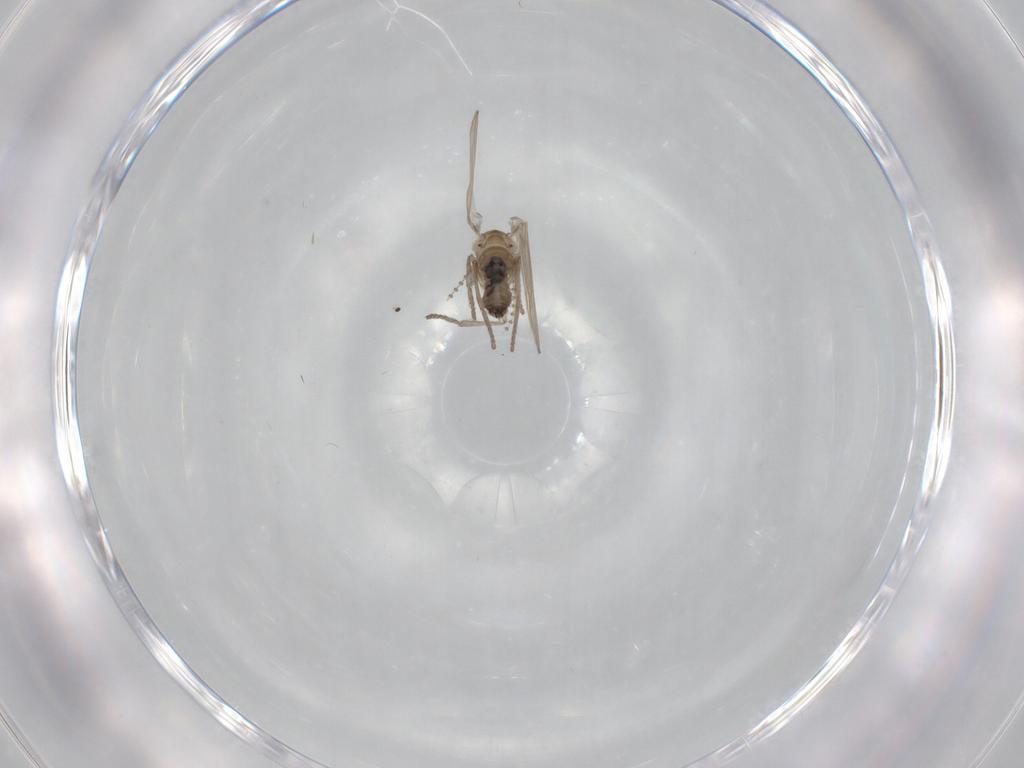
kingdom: Animalia
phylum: Arthropoda
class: Insecta
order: Diptera
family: Psychodidae
